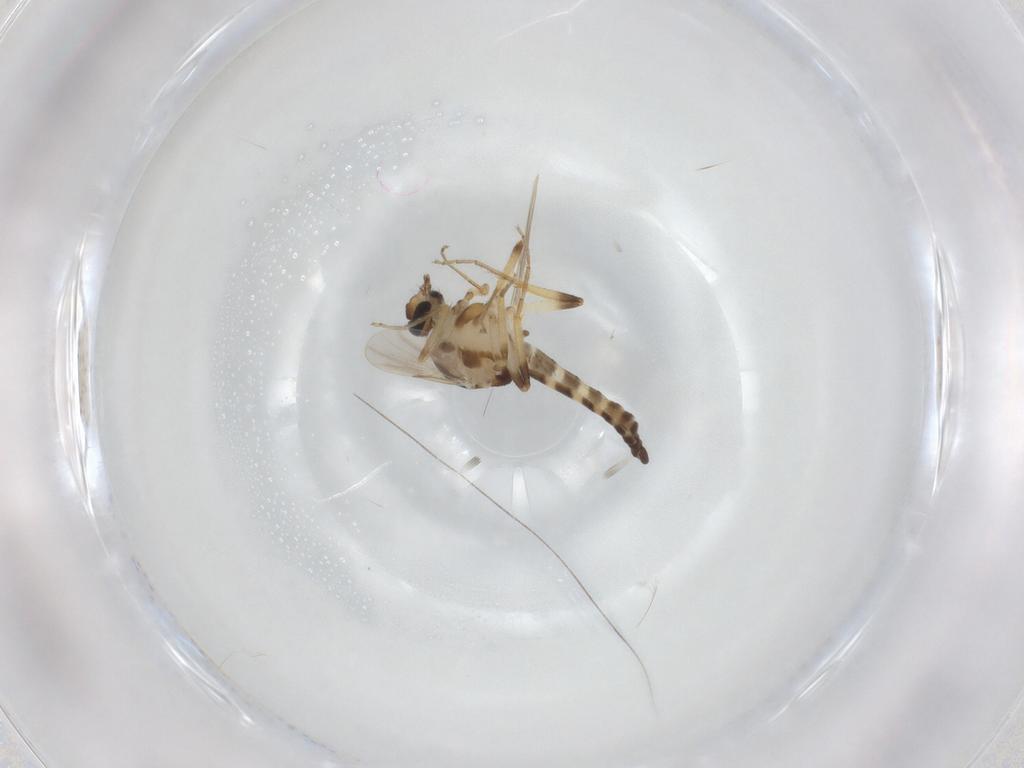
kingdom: Animalia
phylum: Arthropoda
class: Insecta
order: Diptera
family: Ceratopogonidae
